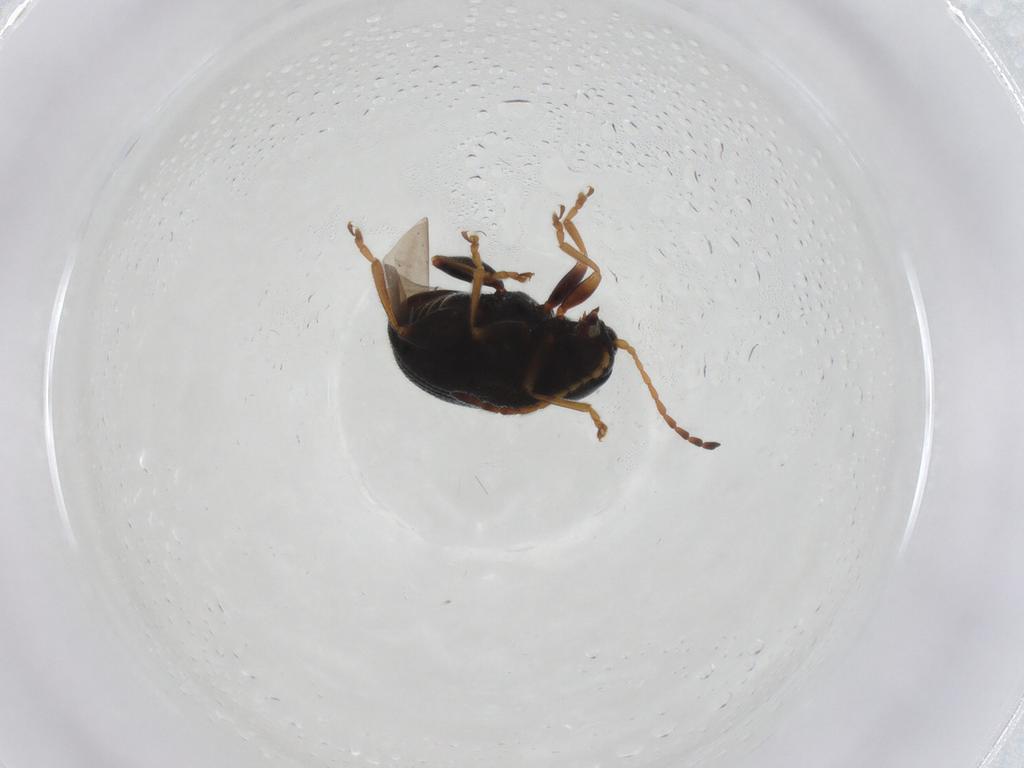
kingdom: Animalia
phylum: Arthropoda
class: Insecta
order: Coleoptera
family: Chrysomelidae
